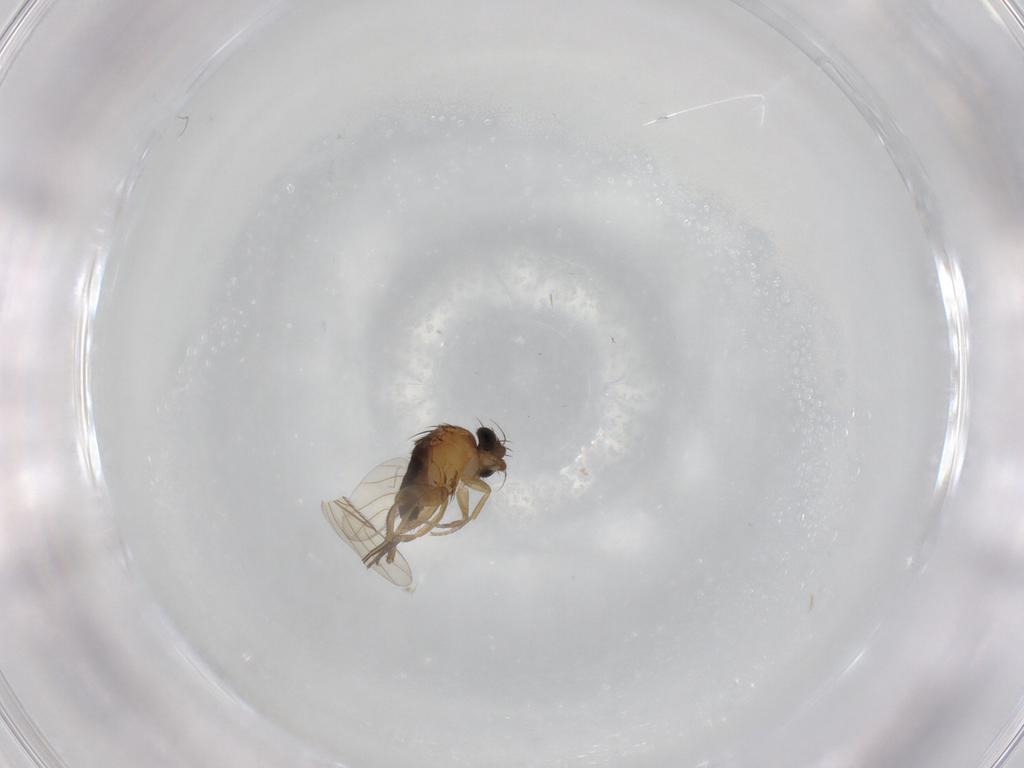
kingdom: Animalia
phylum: Arthropoda
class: Insecta
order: Diptera
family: Phoridae
